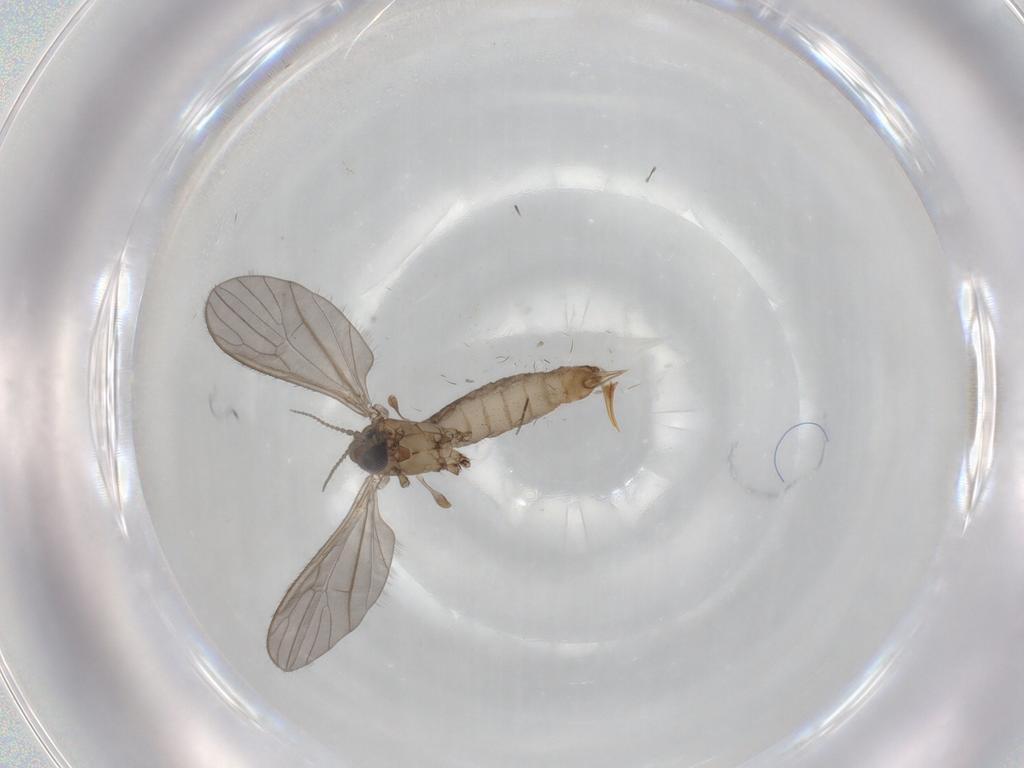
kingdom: Animalia
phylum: Arthropoda
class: Insecta
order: Diptera
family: Limoniidae
